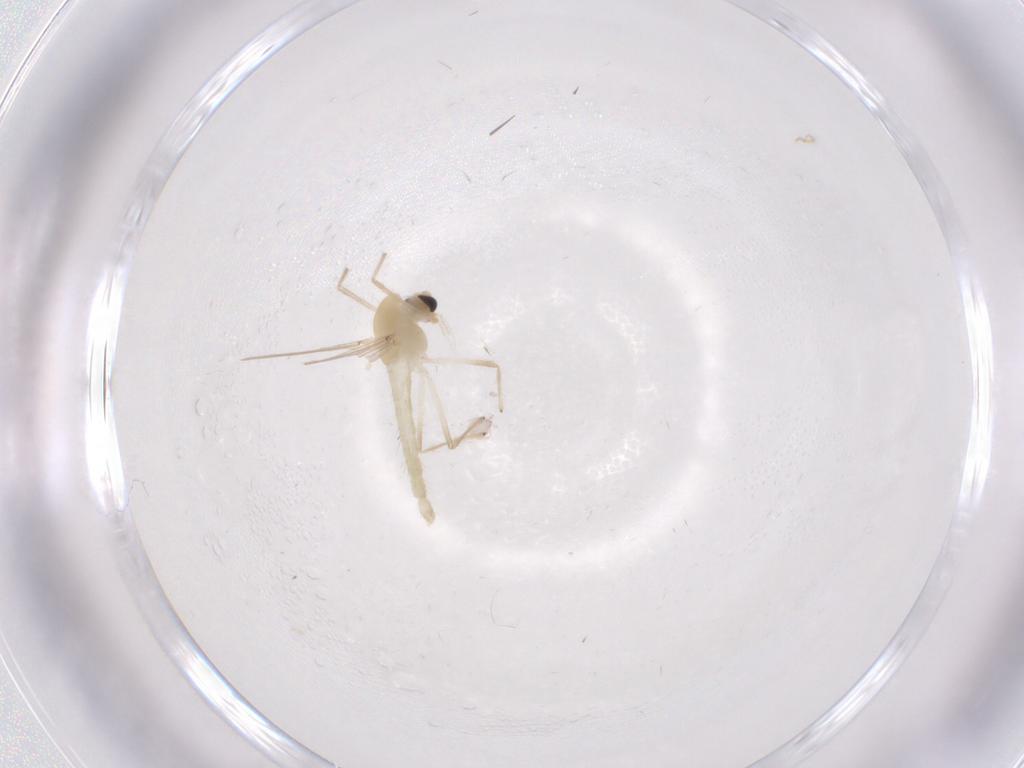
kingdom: Animalia
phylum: Arthropoda
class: Insecta
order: Diptera
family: Chironomidae
